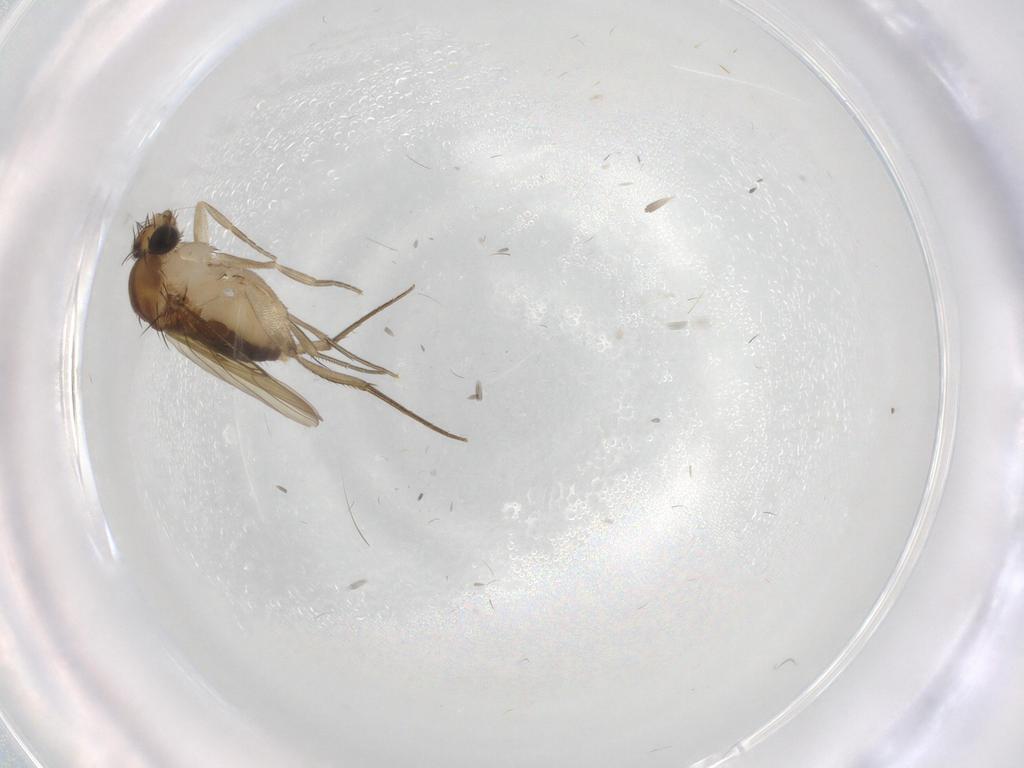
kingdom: Animalia
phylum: Arthropoda
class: Insecta
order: Diptera
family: Phoridae
